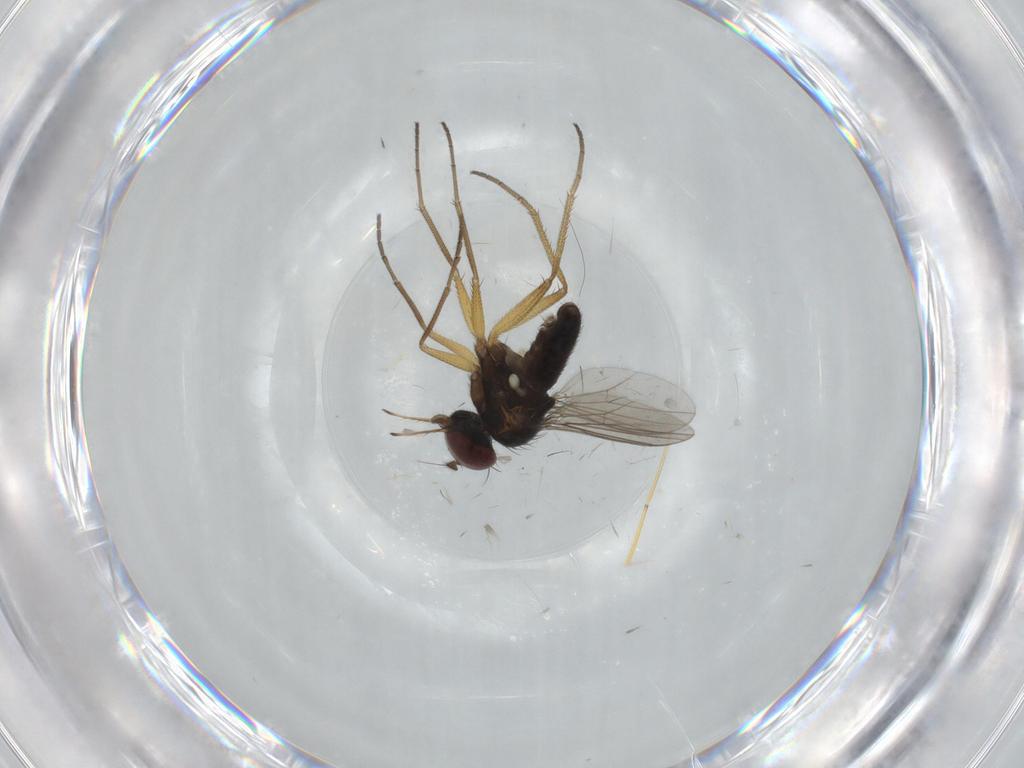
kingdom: Animalia
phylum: Arthropoda
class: Insecta
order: Diptera
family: Dolichopodidae
